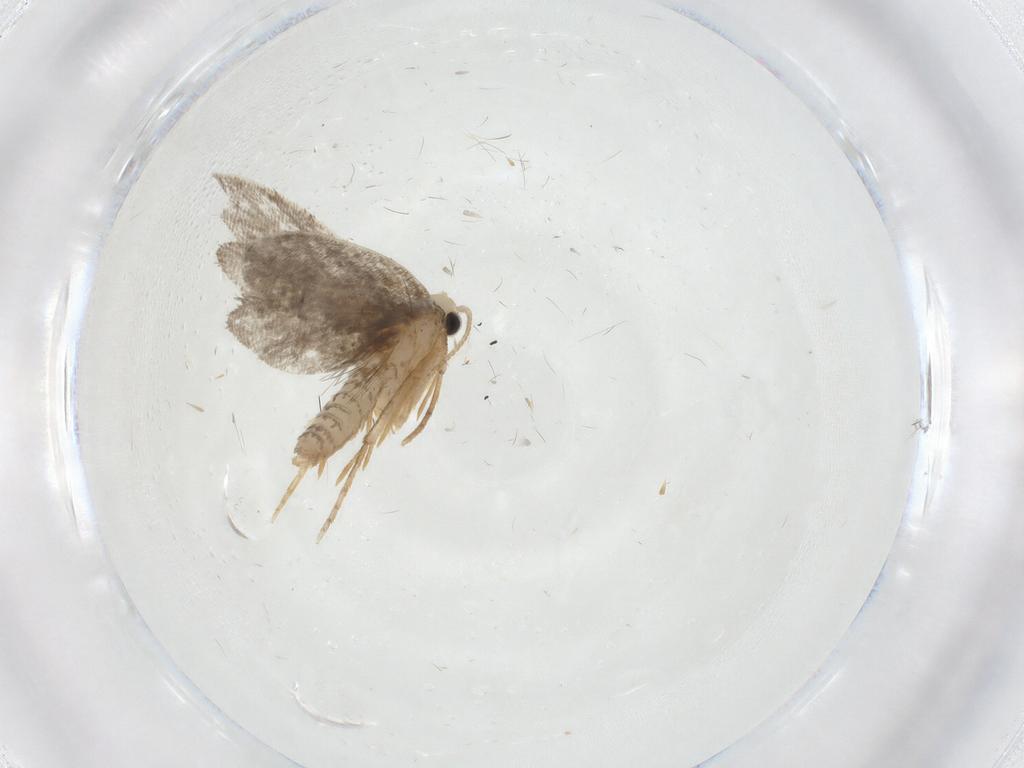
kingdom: Animalia
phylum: Arthropoda
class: Insecta
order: Lepidoptera
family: Psychidae
